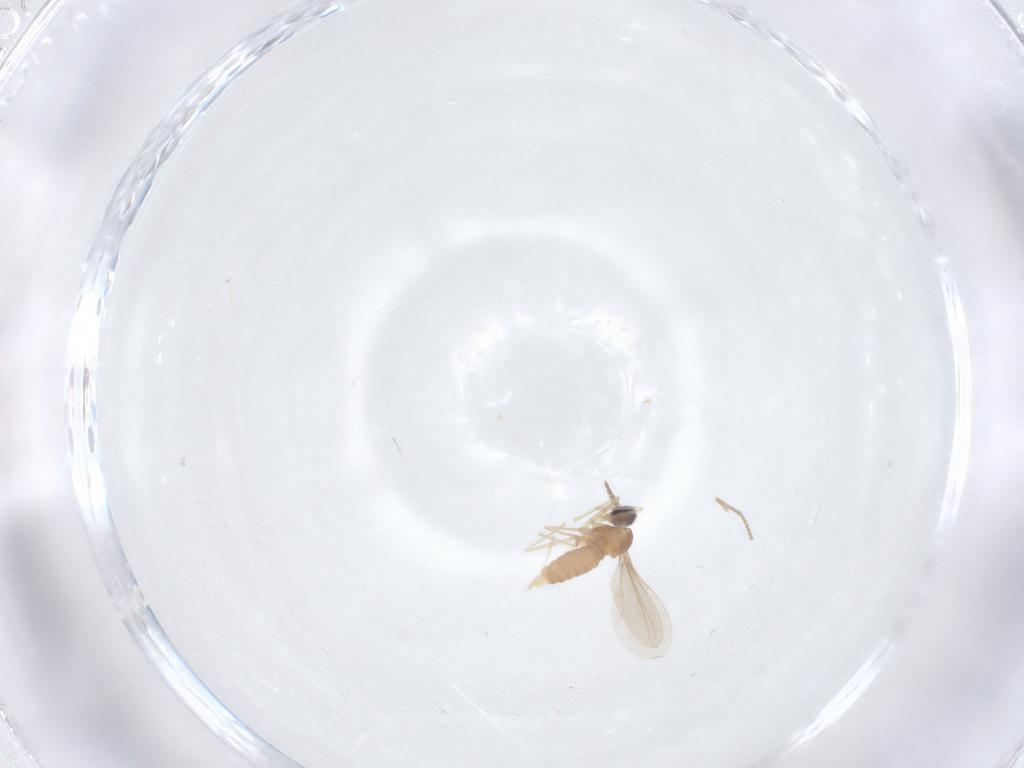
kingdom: Animalia
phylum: Arthropoda
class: Insecta
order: Diptera
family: Cecidomyiidae
